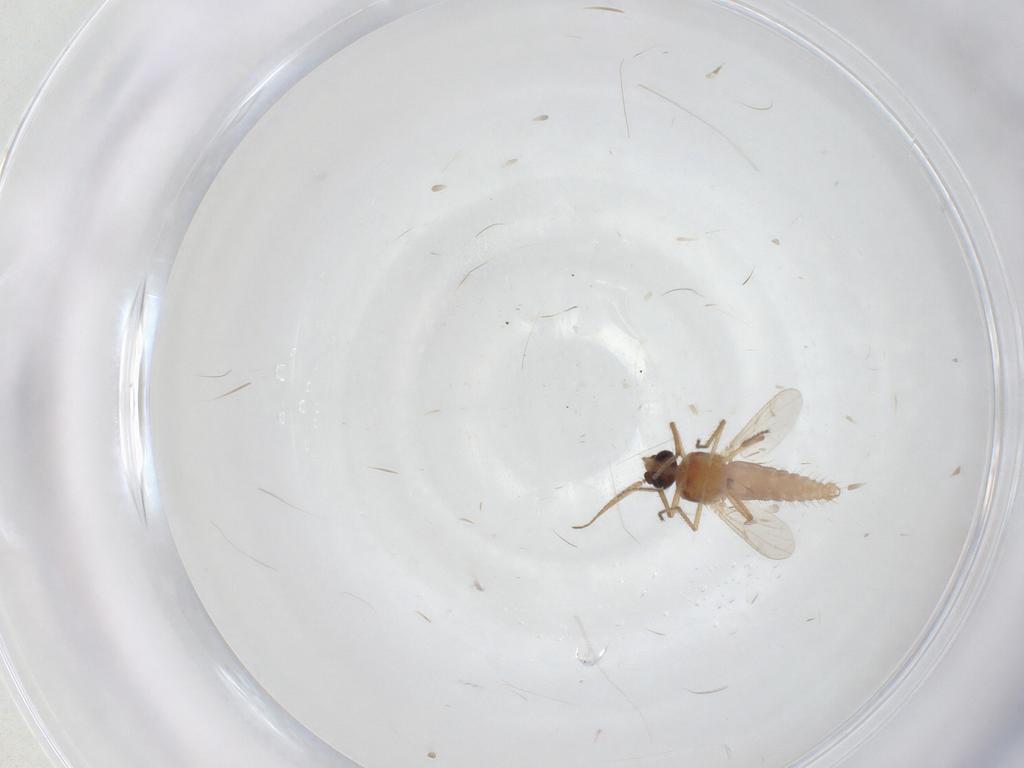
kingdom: Animalia
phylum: Arthropoda
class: Insecta
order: Diptera
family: Ceratopogonidae
